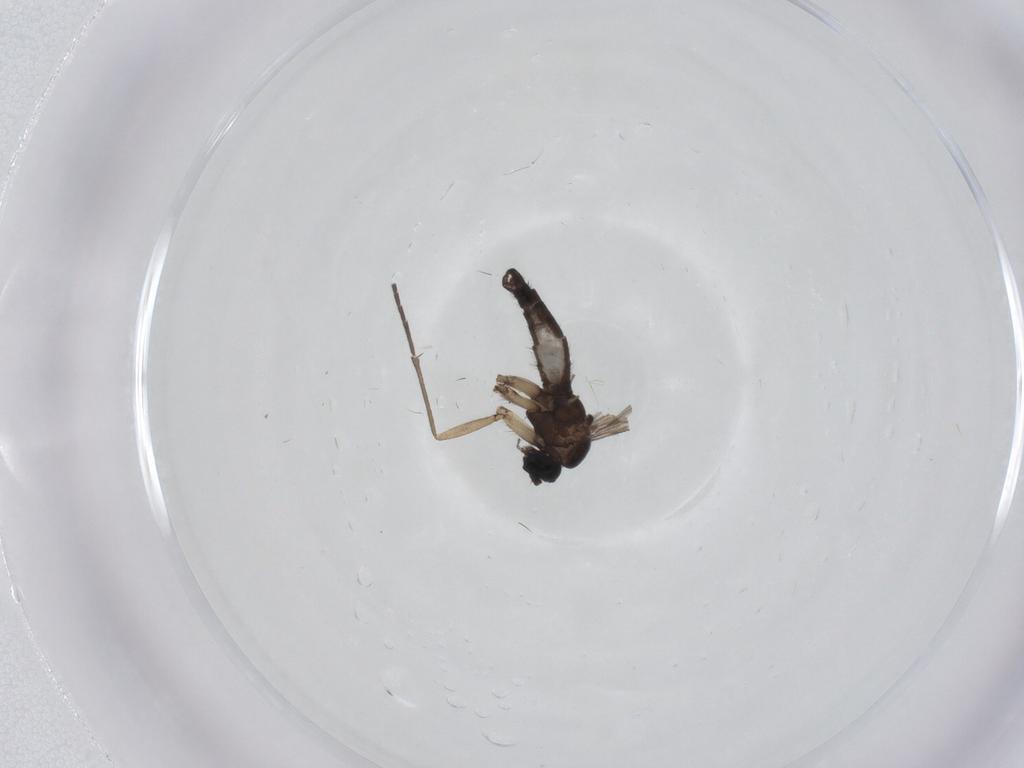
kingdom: Animalia
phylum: Arthropoda
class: Insecta
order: Diptera
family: Sciaridae
